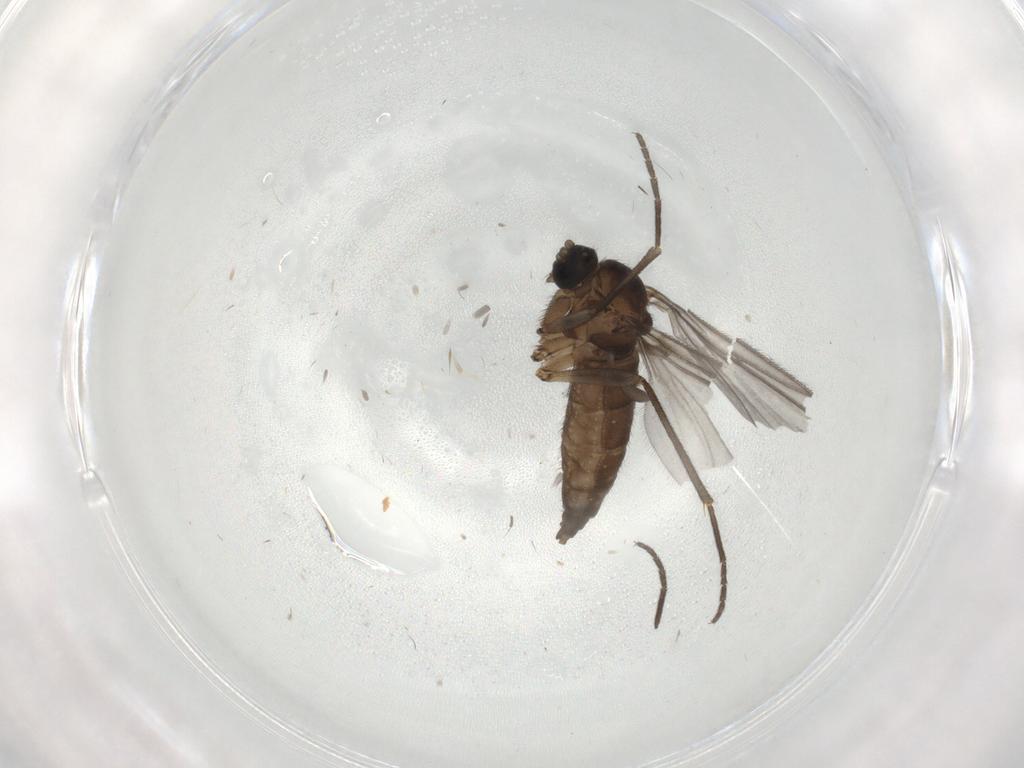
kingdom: Animalia
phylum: Arthropoda
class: Insecta
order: Diptera
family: Sciaridae
